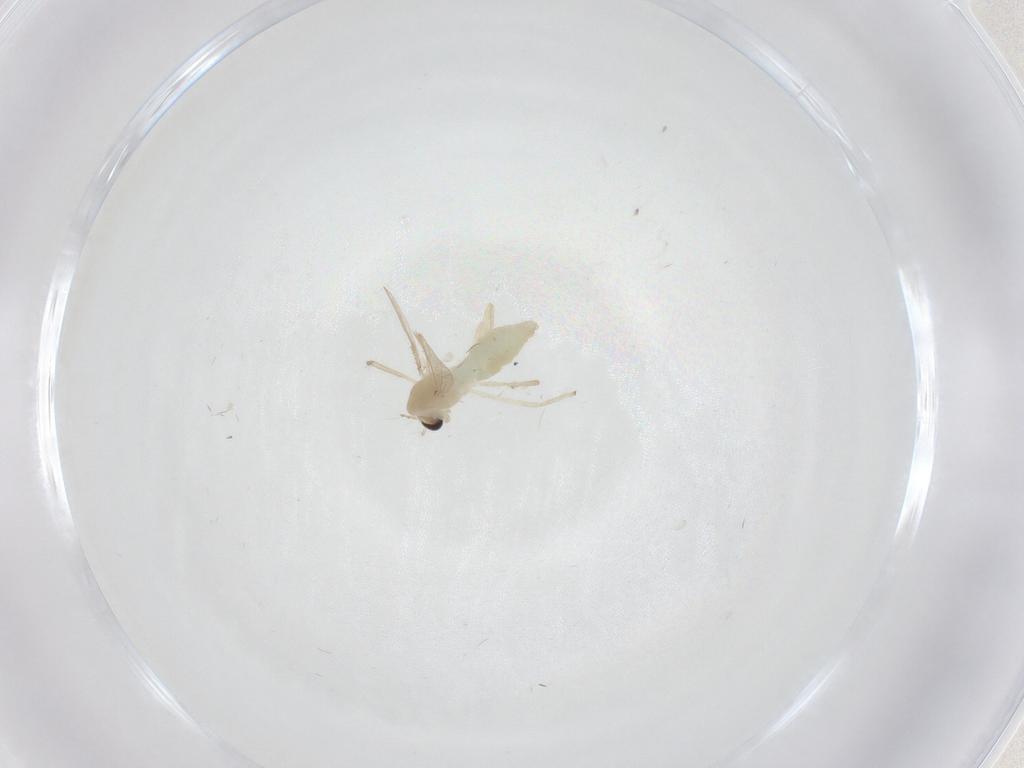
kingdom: Animalia
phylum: Arthropoda
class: Insecta
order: Diptera
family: Chironomidae
